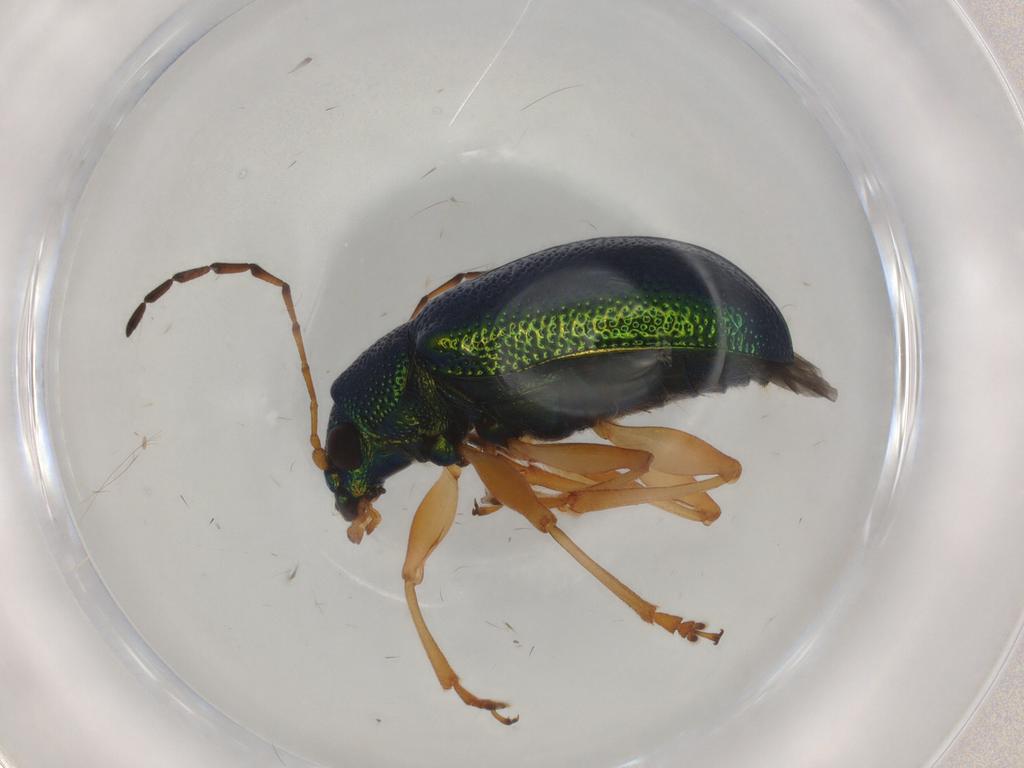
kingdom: Animalia
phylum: Arthropoda
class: Insecta
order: Coleoptera
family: Chrysomelidae
